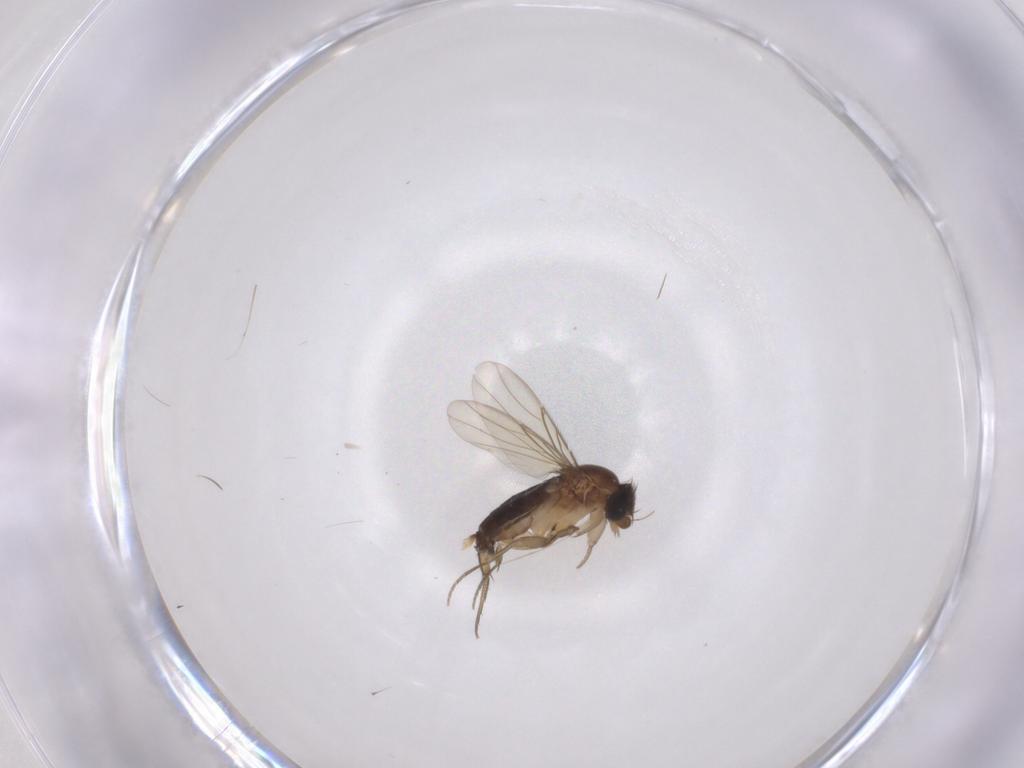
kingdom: Animalia
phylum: Arthropoda
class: Insecta
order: Diptera
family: Phoridae
